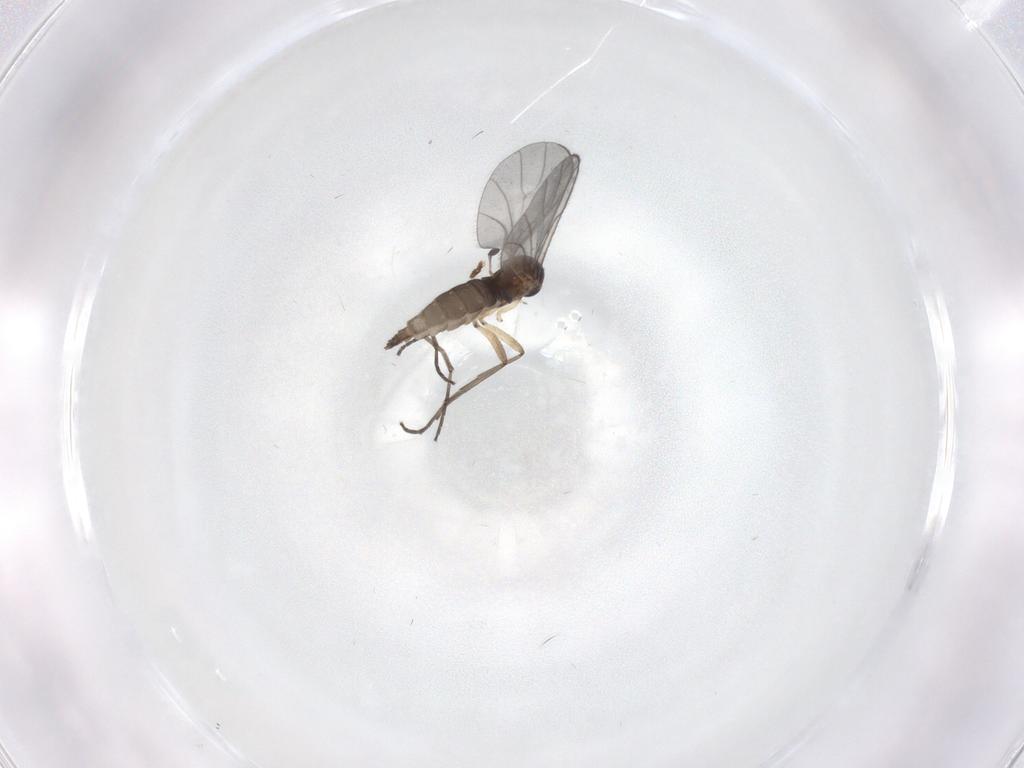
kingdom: Animalia
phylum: Arthropoda
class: Insecta
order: Diptera
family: Sciaridae
